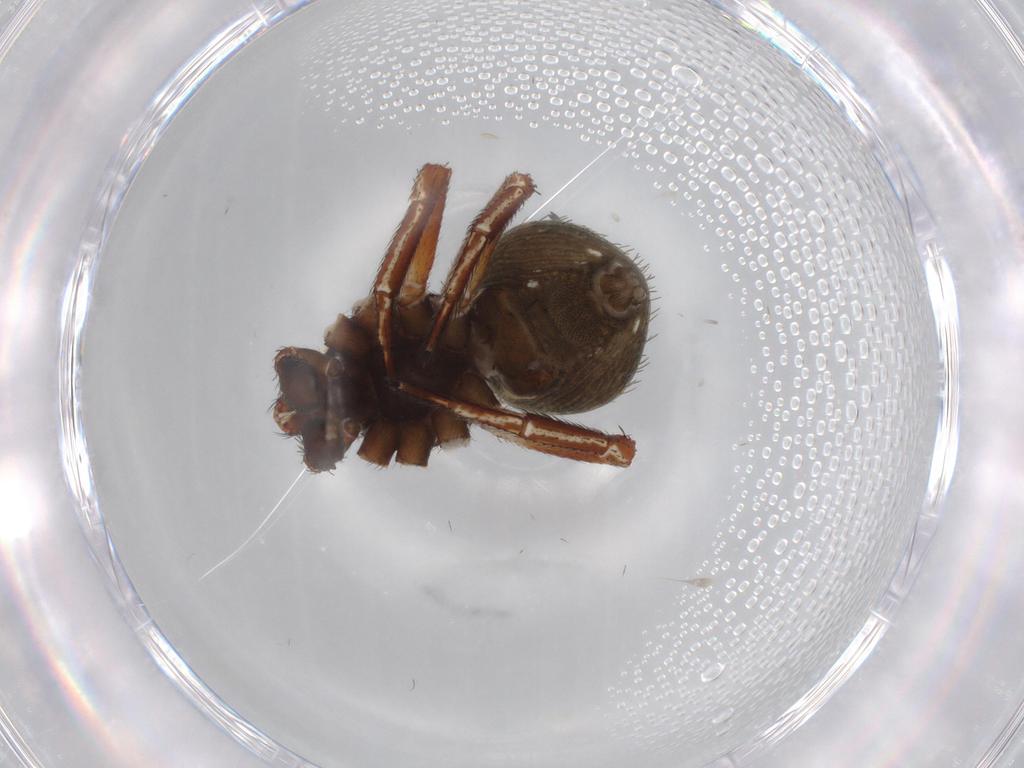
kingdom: Animalia
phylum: Arthropoda
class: Arachnida
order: Araneae
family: Thomisidae
